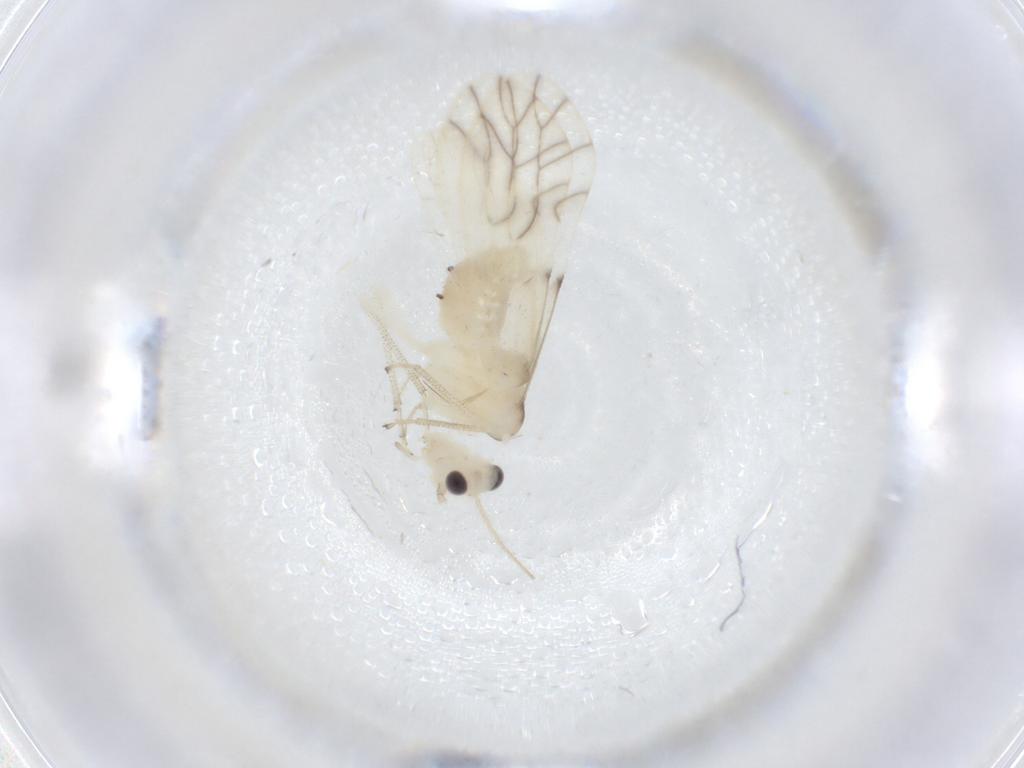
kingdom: Animalia
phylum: Arthropoda
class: Insecta
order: Psocodea
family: Caeciliusidae
